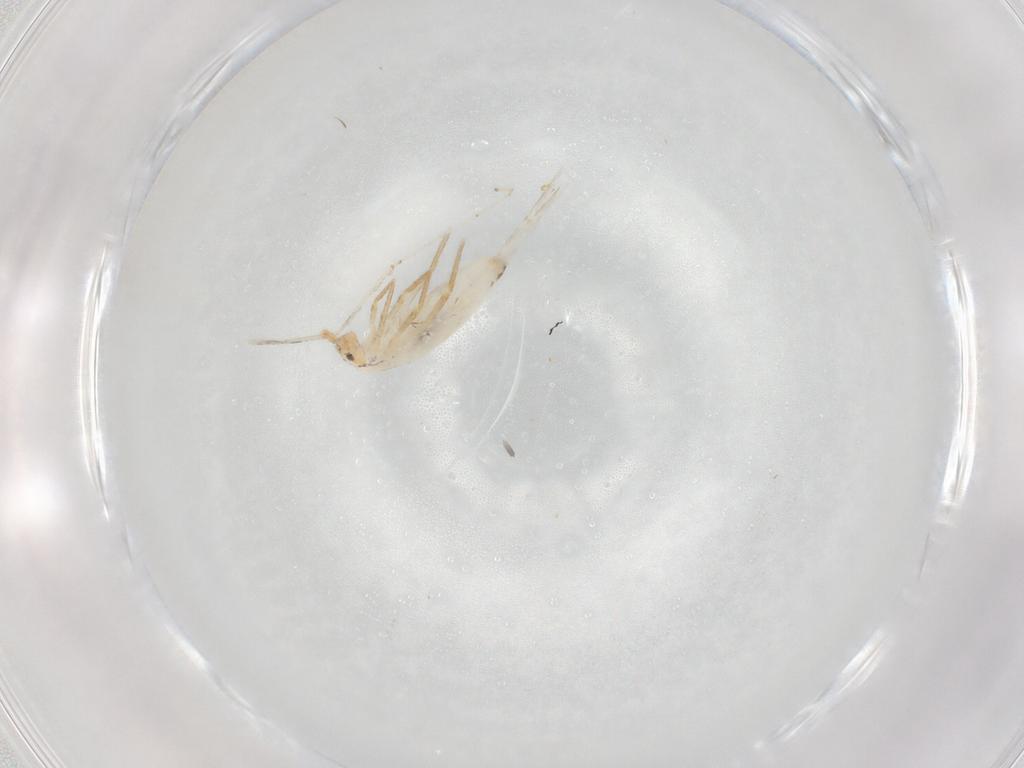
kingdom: Animalia
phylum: Arthropoda
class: Collembola
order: Entomobryomorpha
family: Entomobryidae
